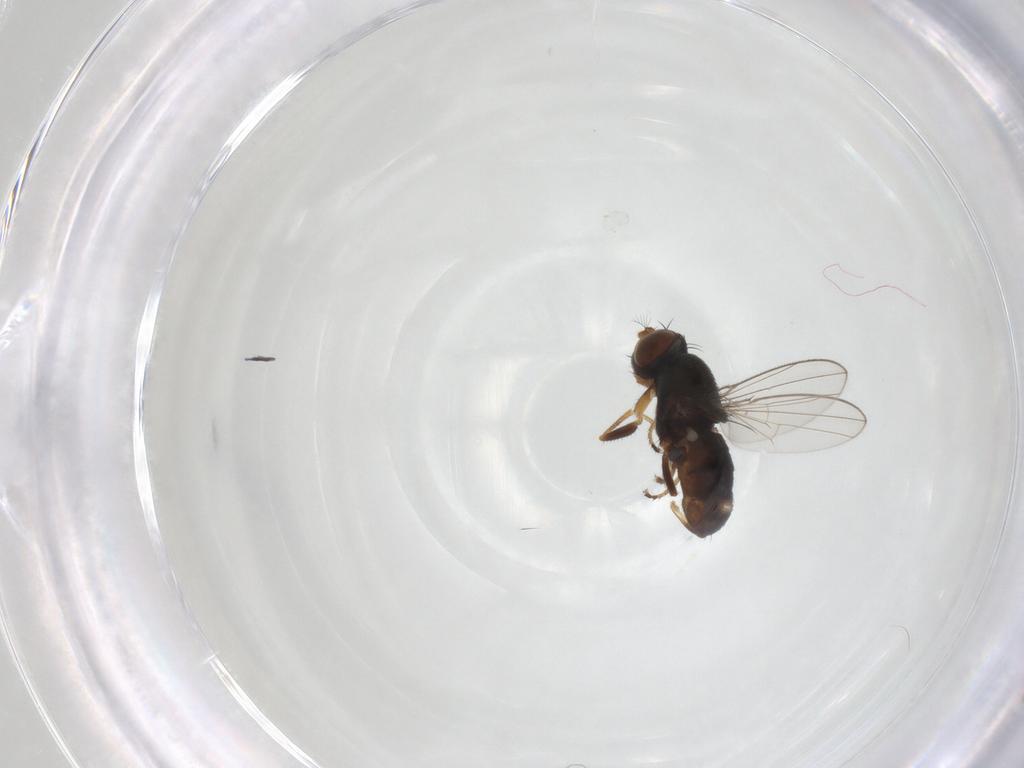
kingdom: Animalia
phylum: Arthropoda
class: Insecta
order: Diptera
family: Ephydridae
